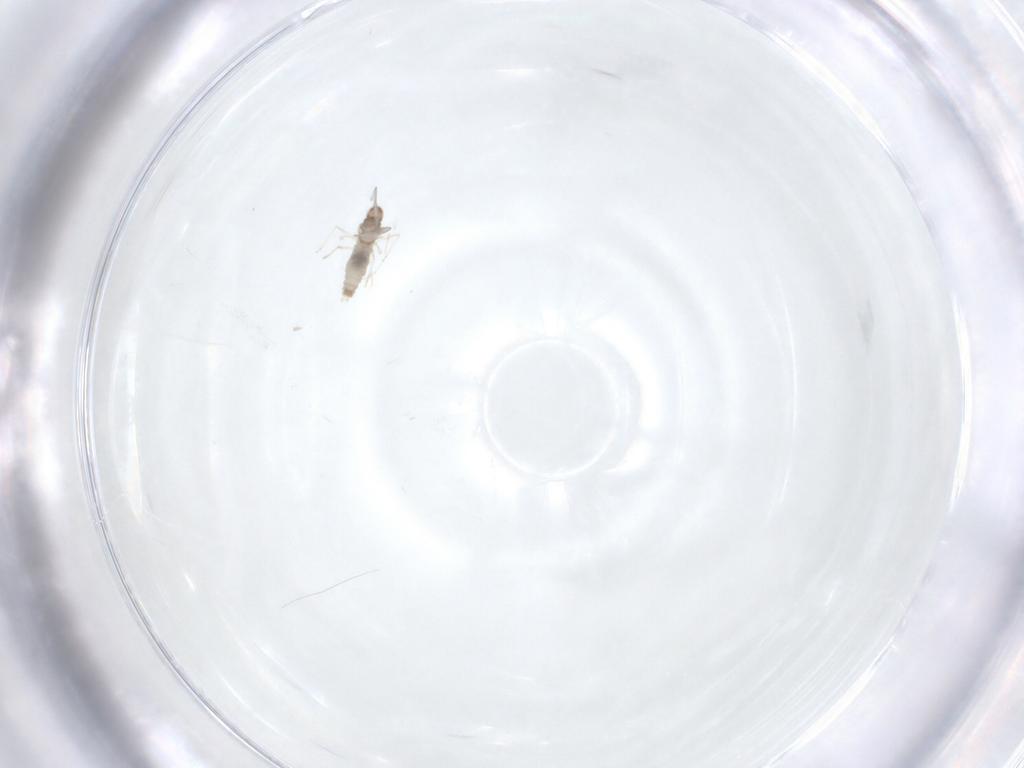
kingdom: Animalia
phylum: Arthropoda
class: Insecta
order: Diptera
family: Cecidomyiidae
